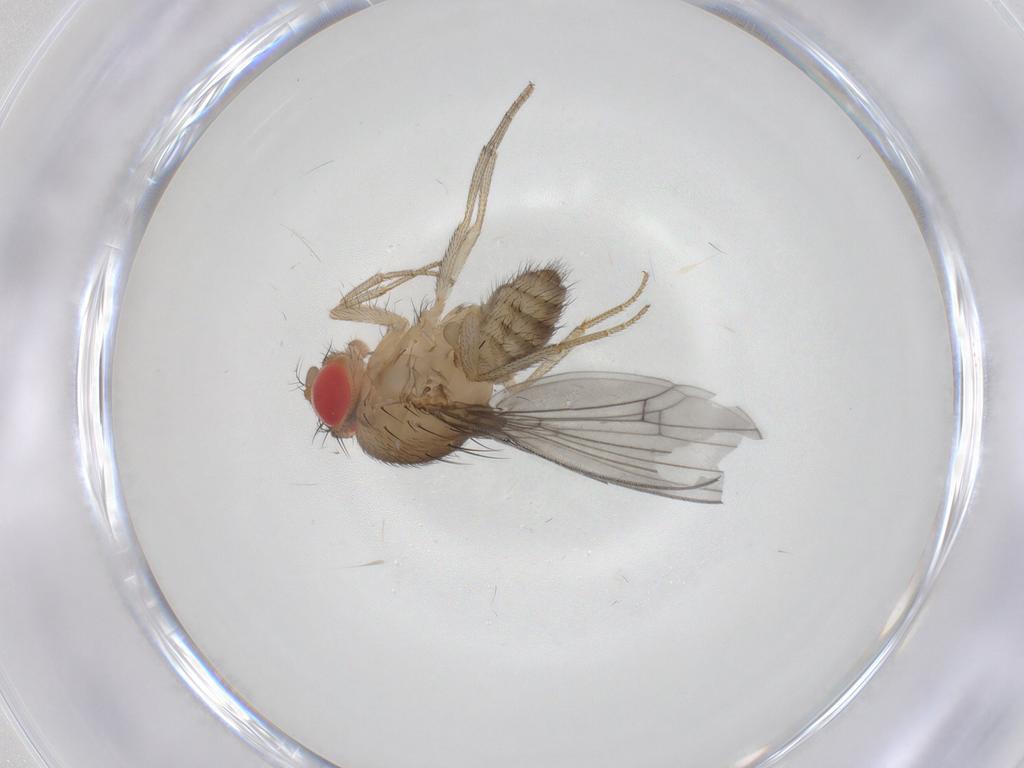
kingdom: Animalia
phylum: Arthropoda
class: Insecta
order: Diptera
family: Drosophilidae
